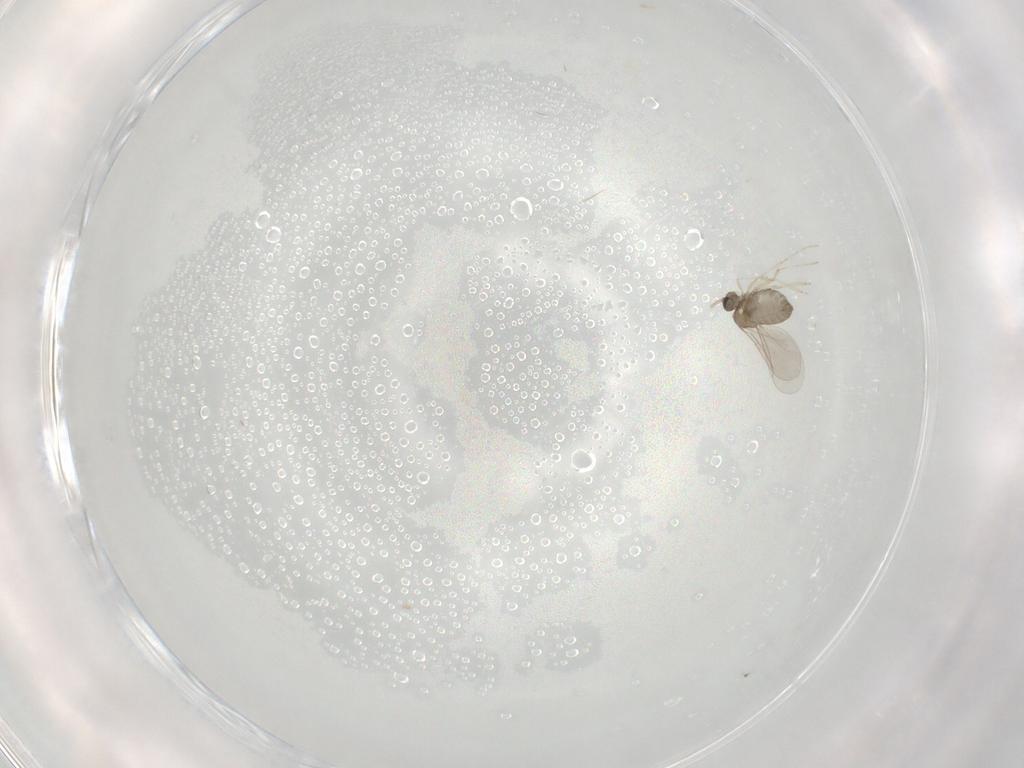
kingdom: Animalia
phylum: Arthropoda
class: Insecta
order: Diptera
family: Cecidomyiidae
